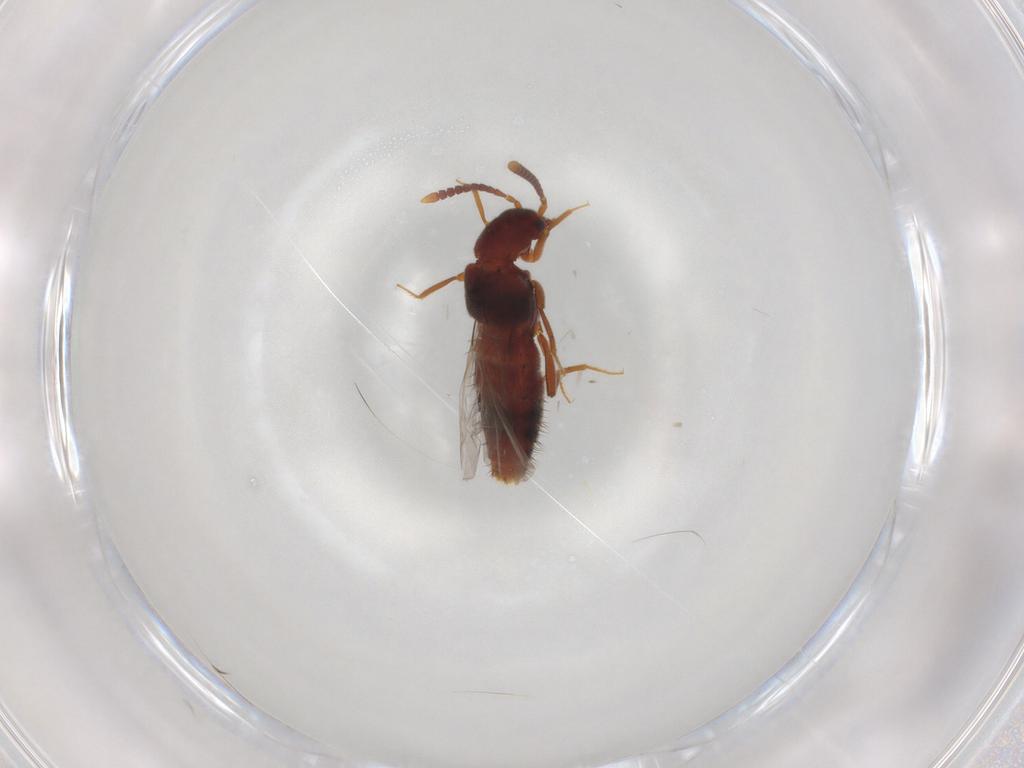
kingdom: Animalia
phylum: Arthropoda
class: Insecta
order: Coleoptera
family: Staphylinidae
